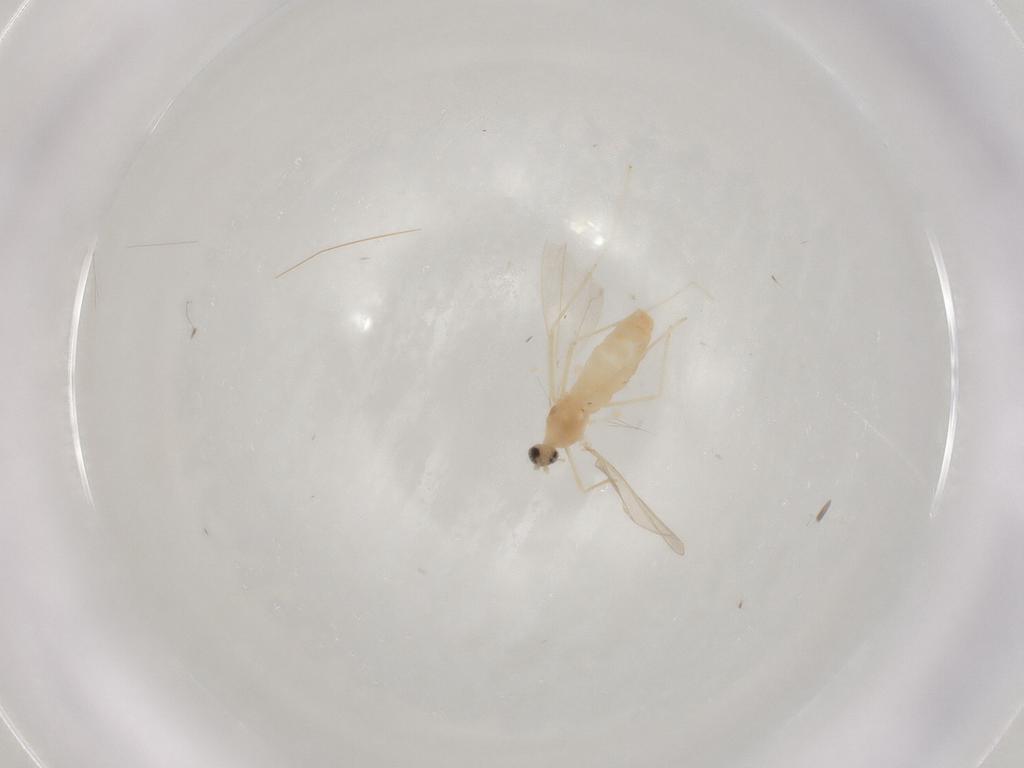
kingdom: Animalia
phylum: Arthropoda
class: Insecta
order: Diptera
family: Cecidomyiidae
